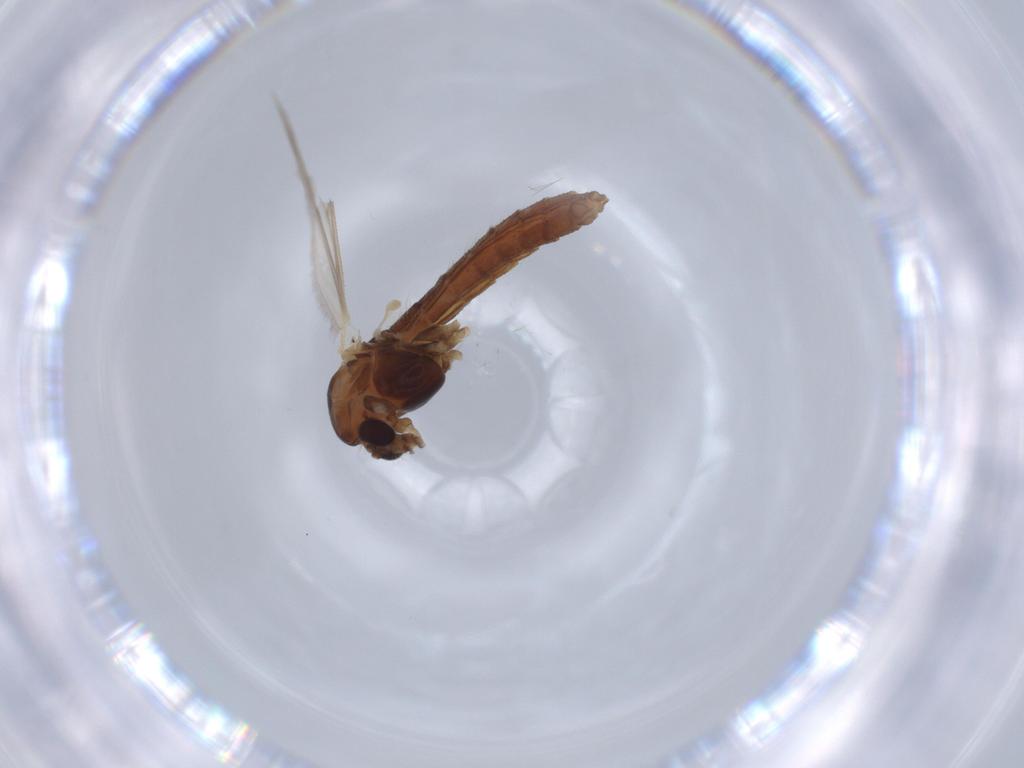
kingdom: Animalia
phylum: Arthropoda
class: Insecta
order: Diptera
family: Chironomidae
